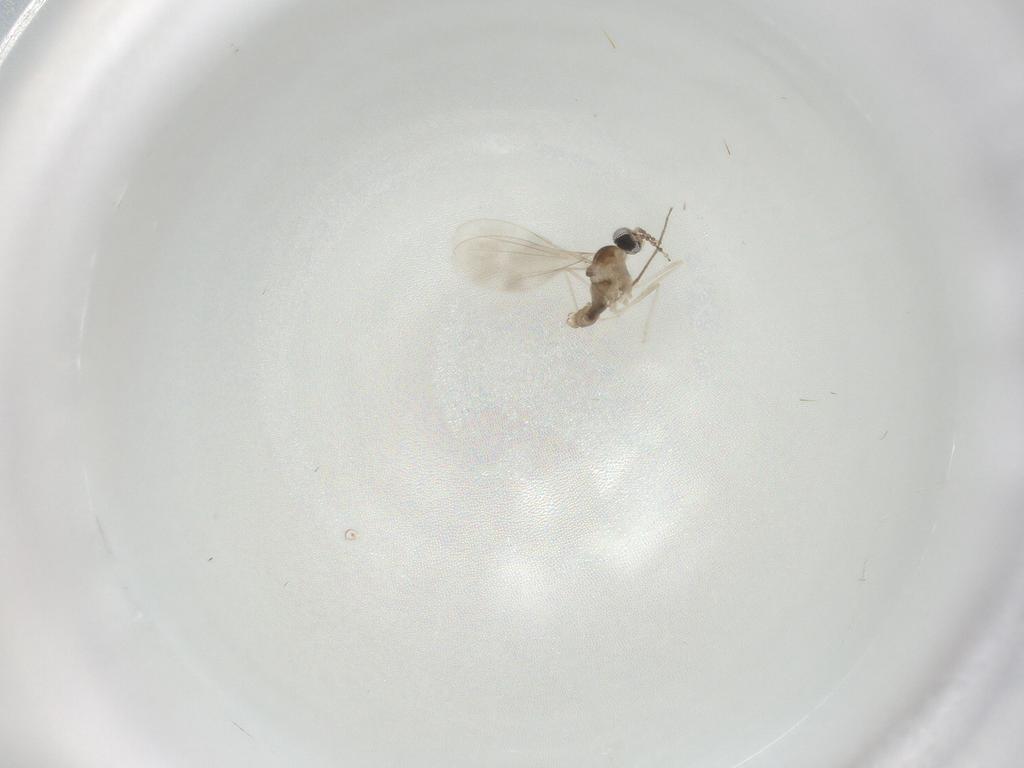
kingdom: Animalia
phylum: Arthropoda
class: Insecta
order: Diptera
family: Cecidomyiidae
